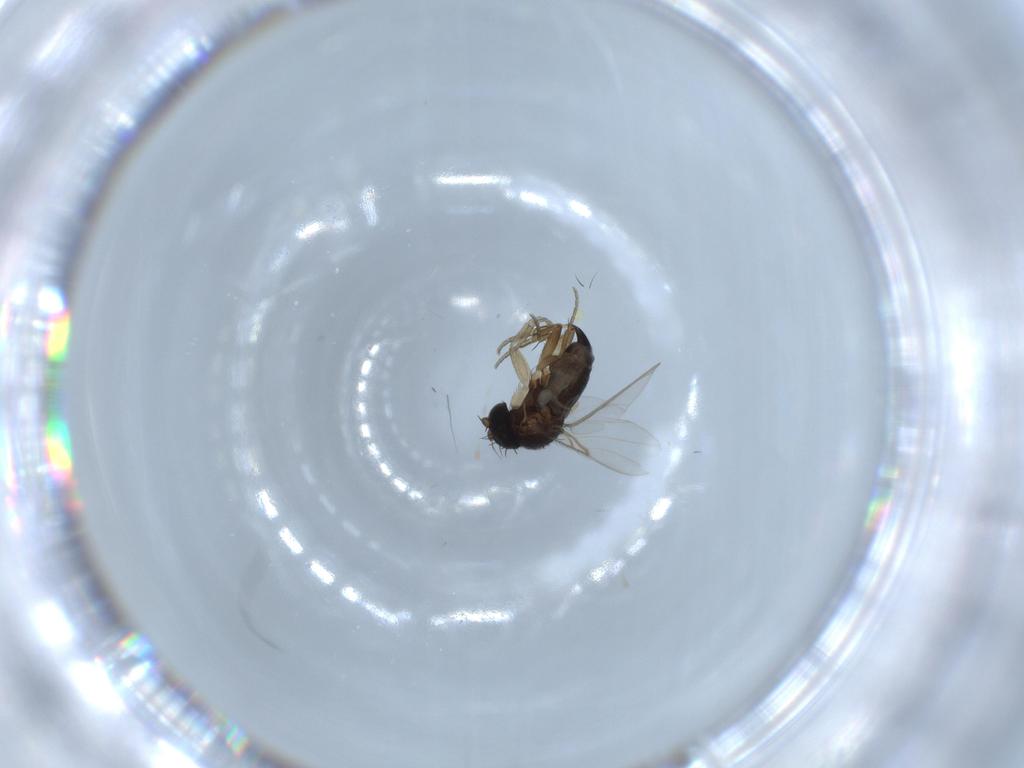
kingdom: Animalia
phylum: Arthropoda
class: Insecta
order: Diptera
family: Phoridae
